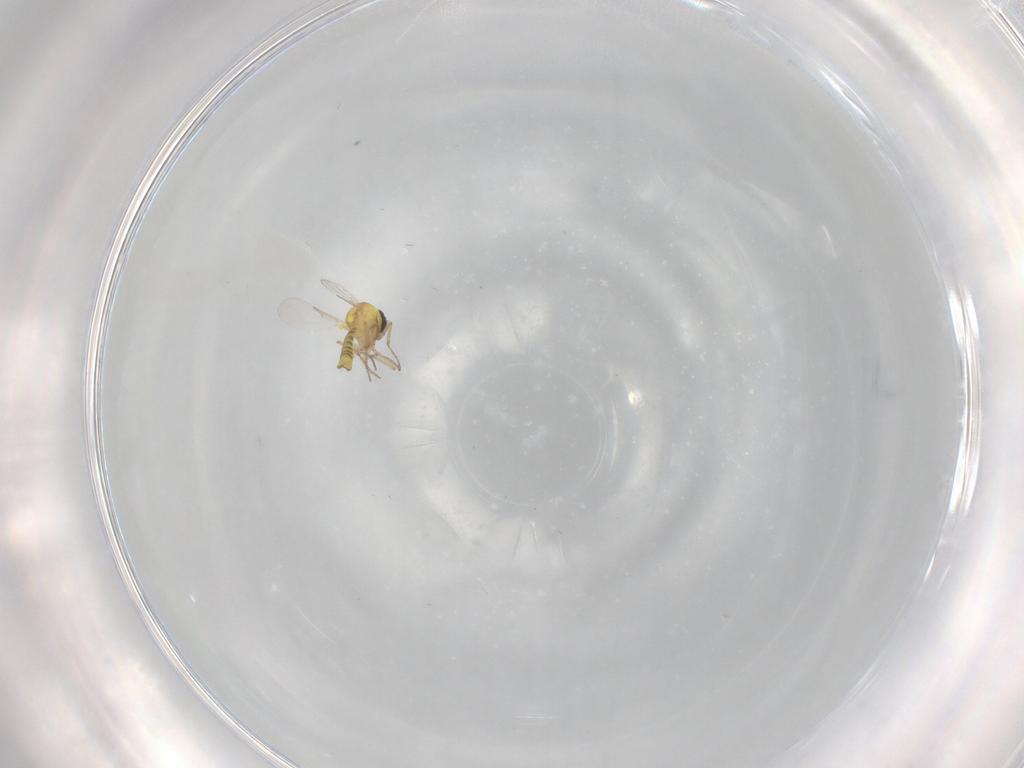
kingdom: Animalia
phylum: Arthropoda
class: Insecta
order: Diptera
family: Ceratopogonidae
